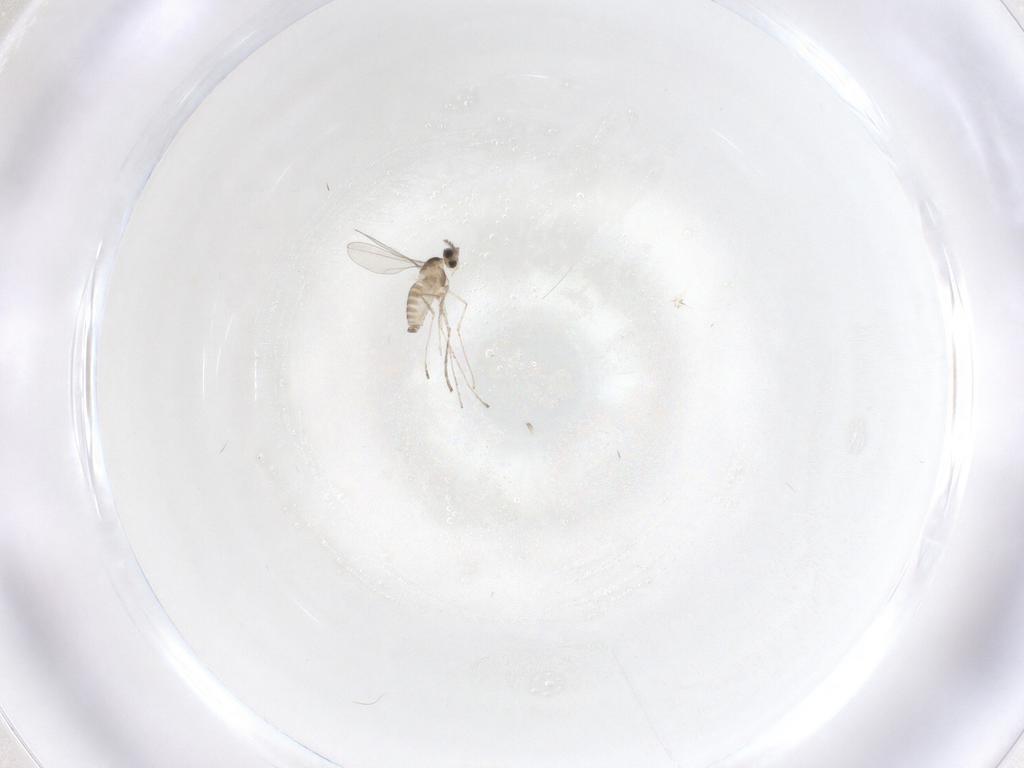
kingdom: Animalia
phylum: Arthropoda
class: Insecta
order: Diptera
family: Cecidomyiidae
